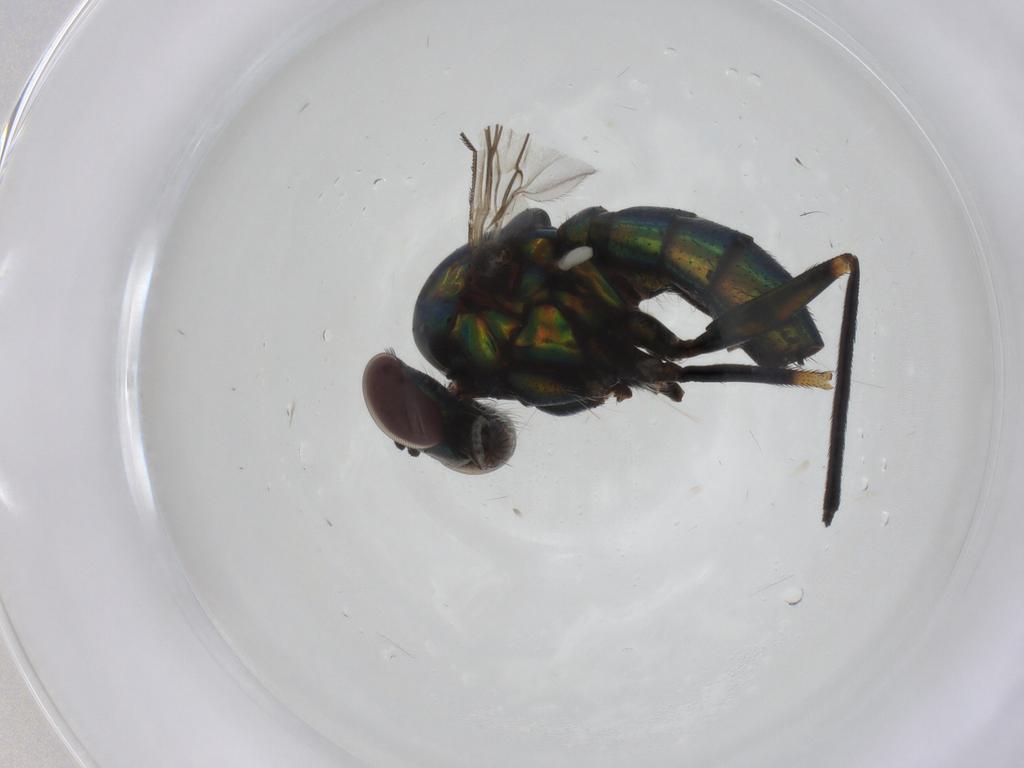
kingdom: Animalia
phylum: Arthropoda
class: Insecta
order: Diptera
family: Dolichopodidae
